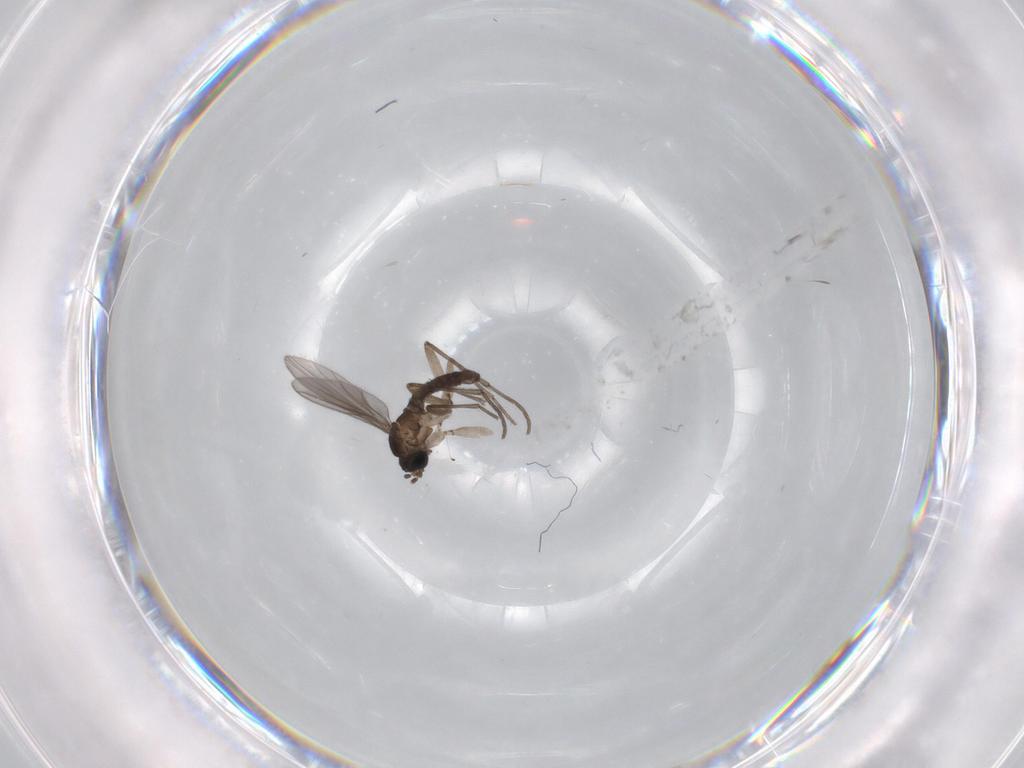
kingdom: Animalia
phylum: Arthropoda
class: Insecta
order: Diptera
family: Sciaridae
